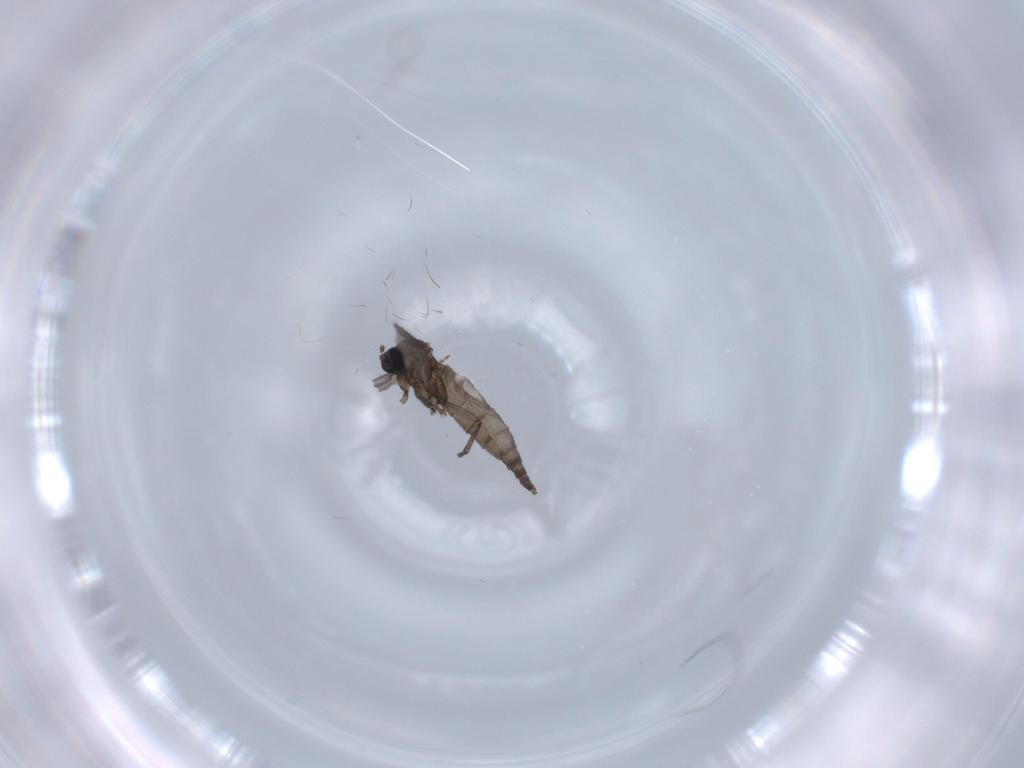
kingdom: Animalia
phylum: Arthropoda
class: Insecta
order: Diptera
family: Sciaridae
